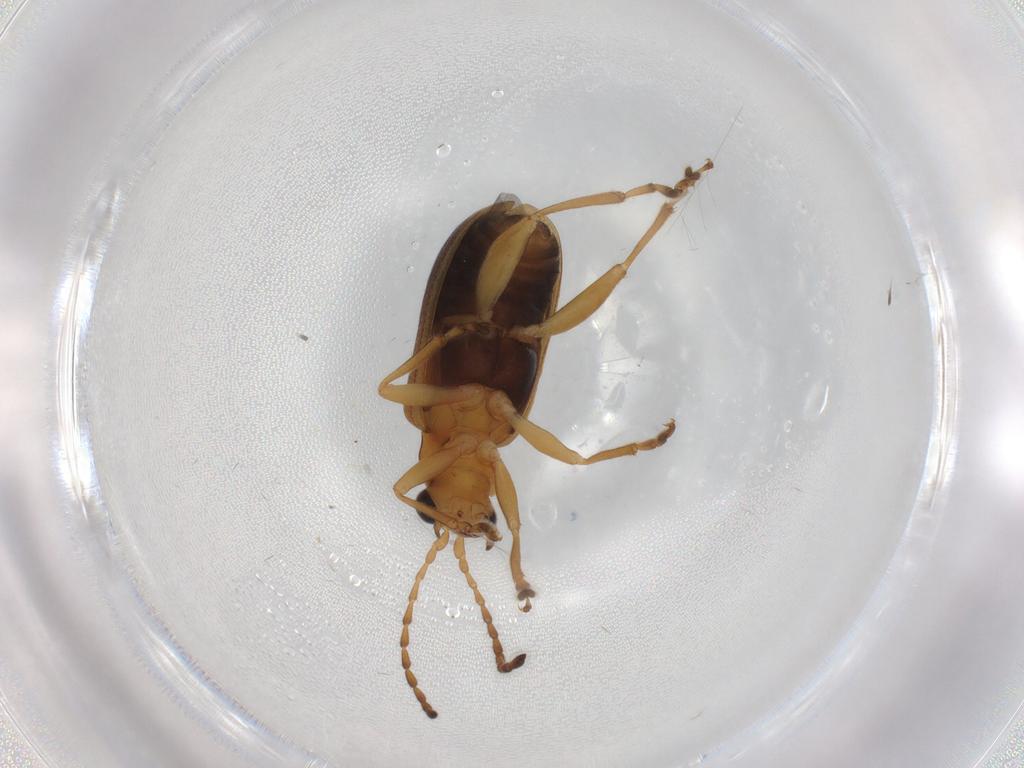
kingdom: Animalia
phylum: Arthropoda
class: Insecta
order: Coleoptera
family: Chrysomelidae
